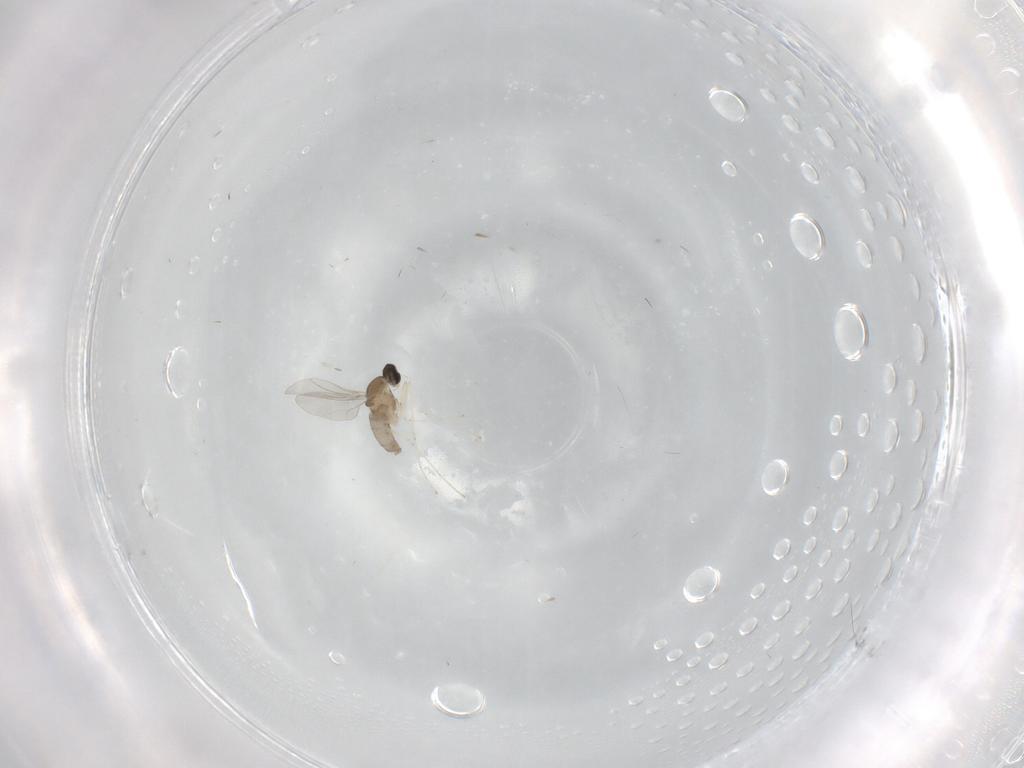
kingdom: Animalia
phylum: Arthropoda
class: Insecta
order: Diptera
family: Cecidomyiidae
